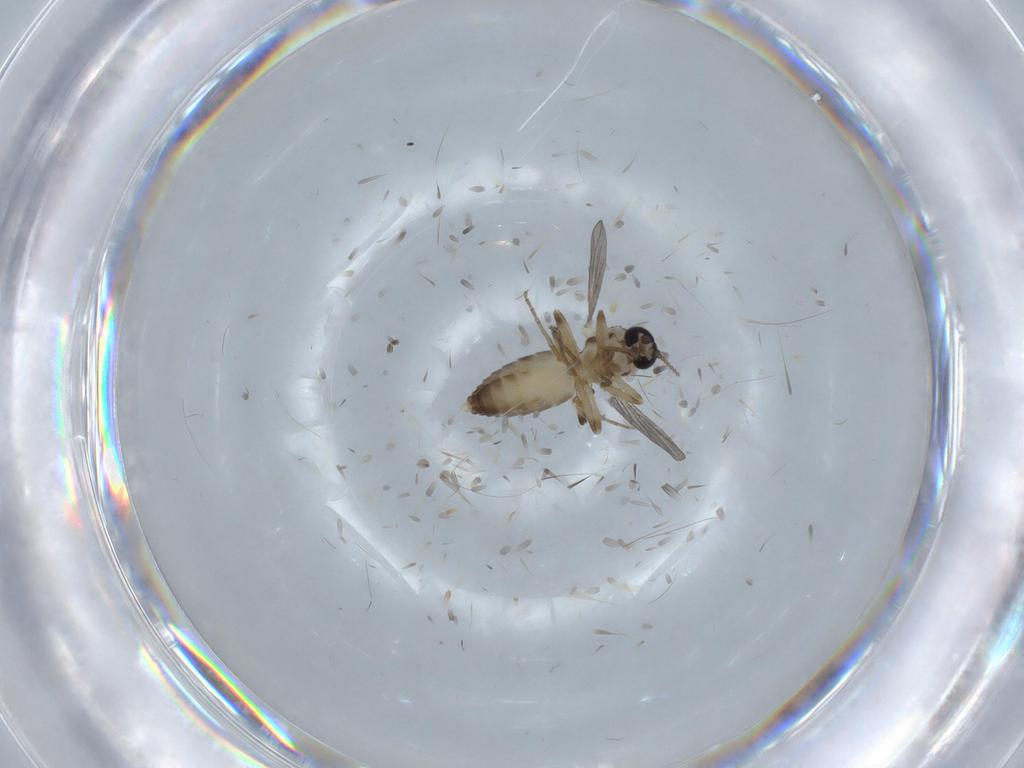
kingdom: Animalia
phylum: Arthropoda
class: Insecta
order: Diptera
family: Ceratopogonidae
